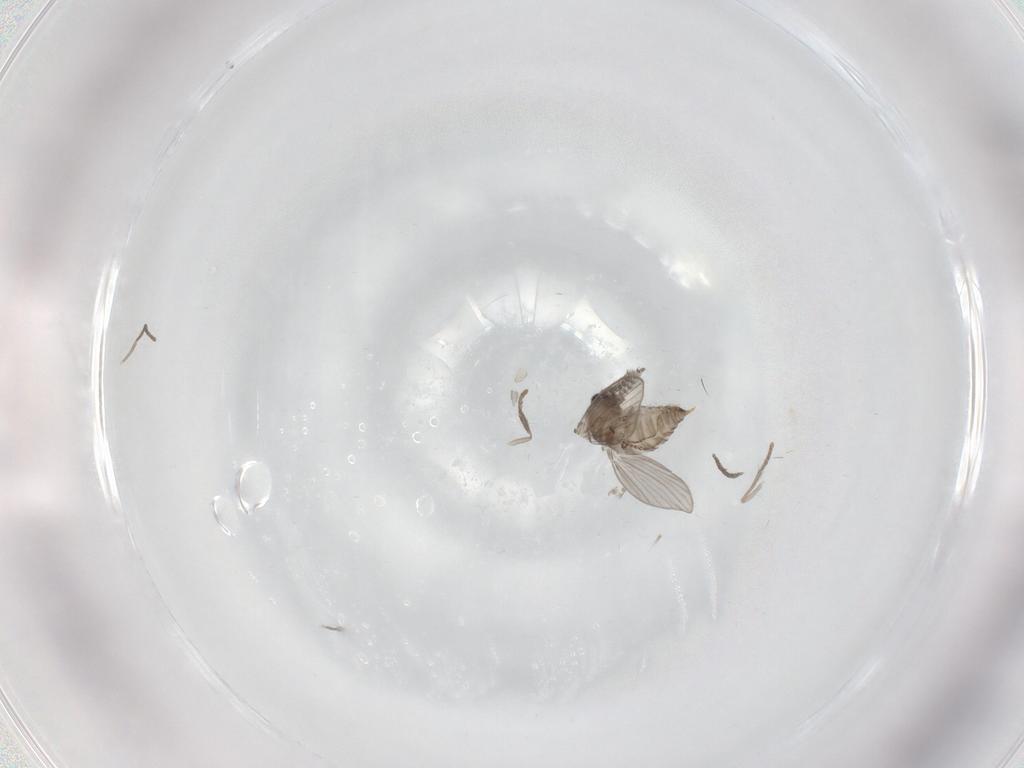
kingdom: Animalia
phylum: Arthropoda
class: Insecta
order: Diptera
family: Psychodidae
